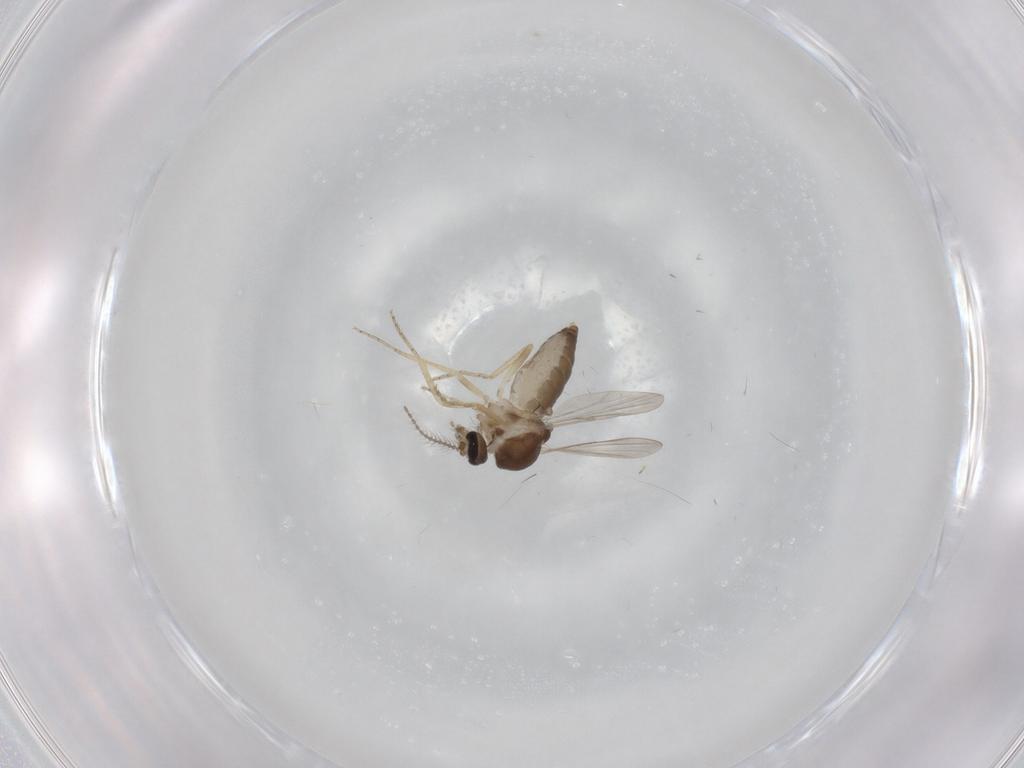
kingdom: Animalia
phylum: Arthropoda
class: Insecta
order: Diptera
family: Ceratopogonidae
